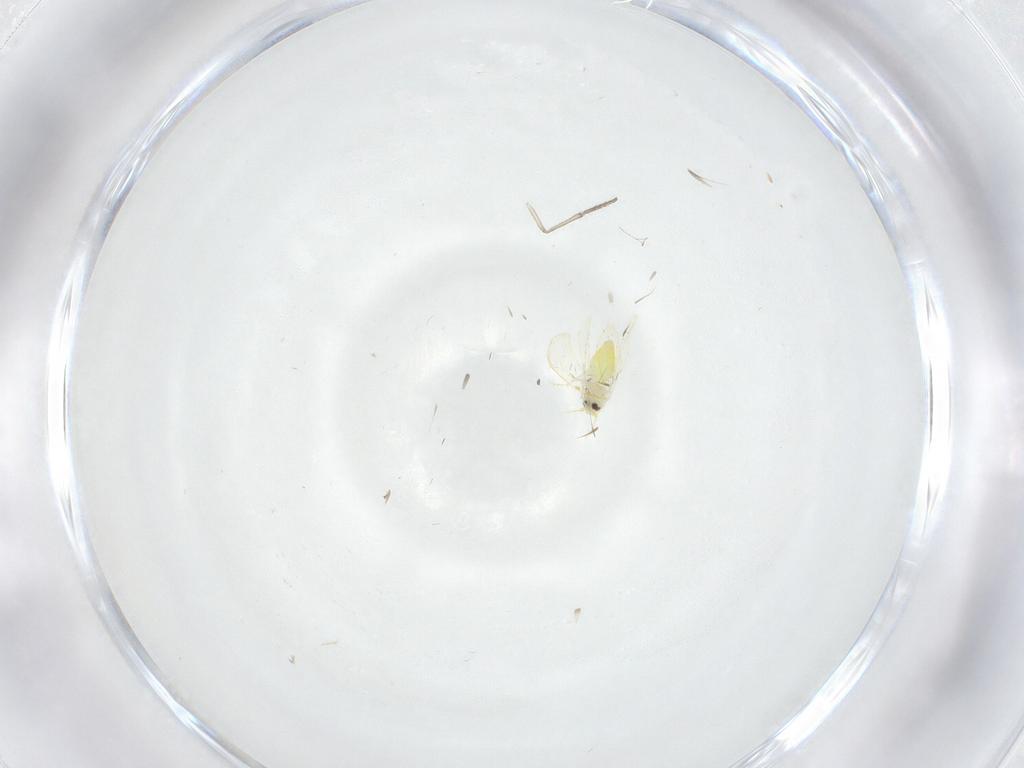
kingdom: Animalia
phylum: Arthropoda
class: Insecta
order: Hemiptera
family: Aleyrodidae
